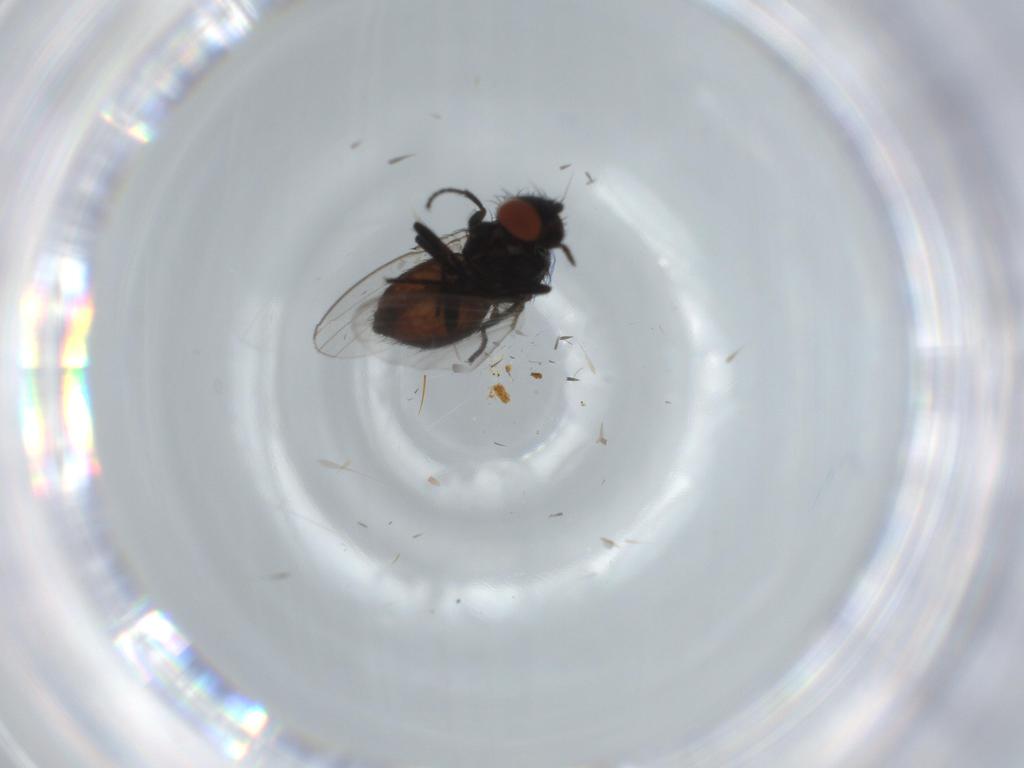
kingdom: Animalia
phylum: Arthropoda
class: Insecta
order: Diptera
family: Milichiidae
